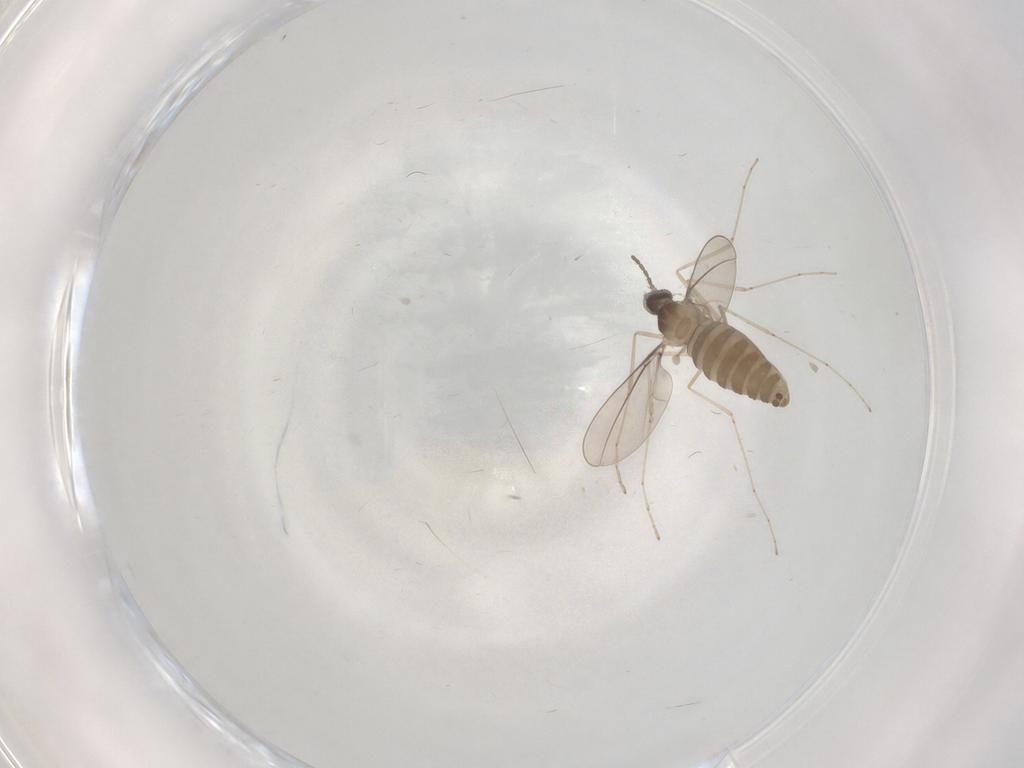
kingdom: Animalia
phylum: Arthropoda
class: Insecta
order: Diptera
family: Cecidomyiidae
